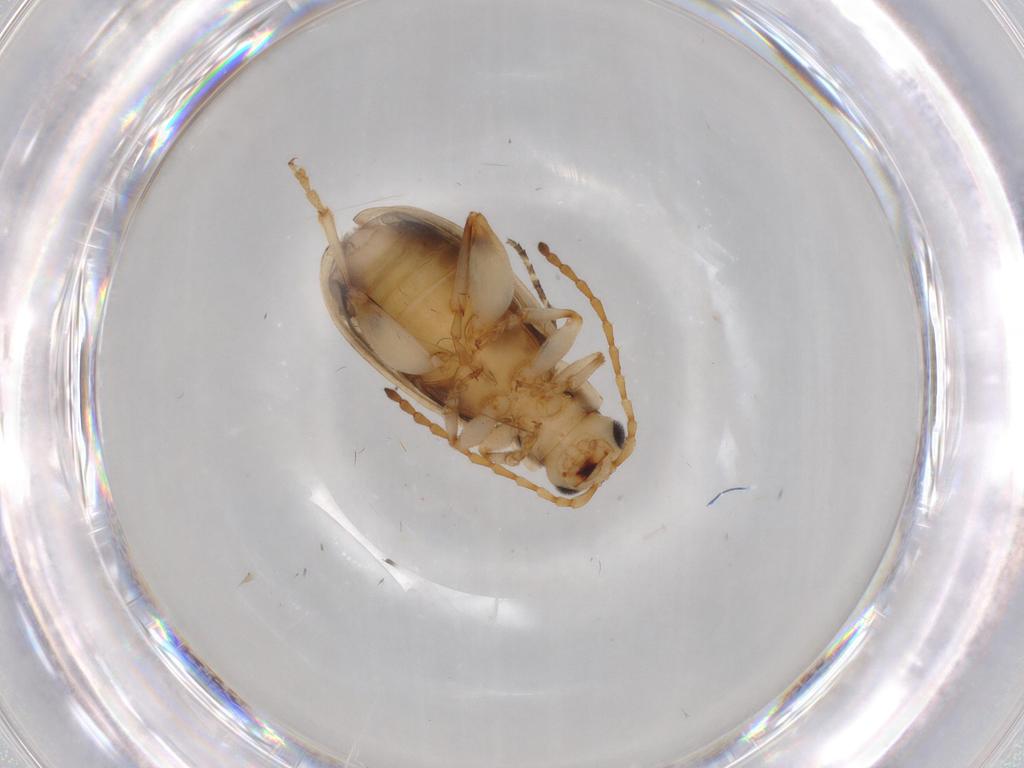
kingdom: Animalia
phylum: Arthropoda
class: Insecta
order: Coleoptera
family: Chrysomelidae
